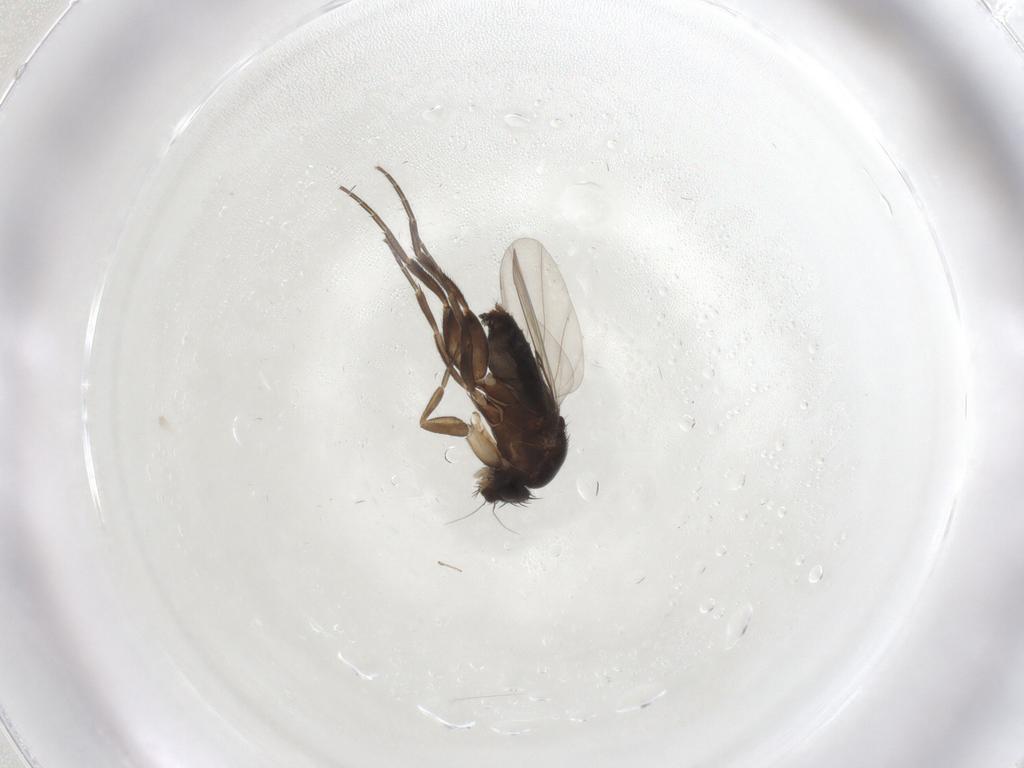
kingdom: Animalia
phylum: Arthropoda
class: Insecta
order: Diptera
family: Phoridae
